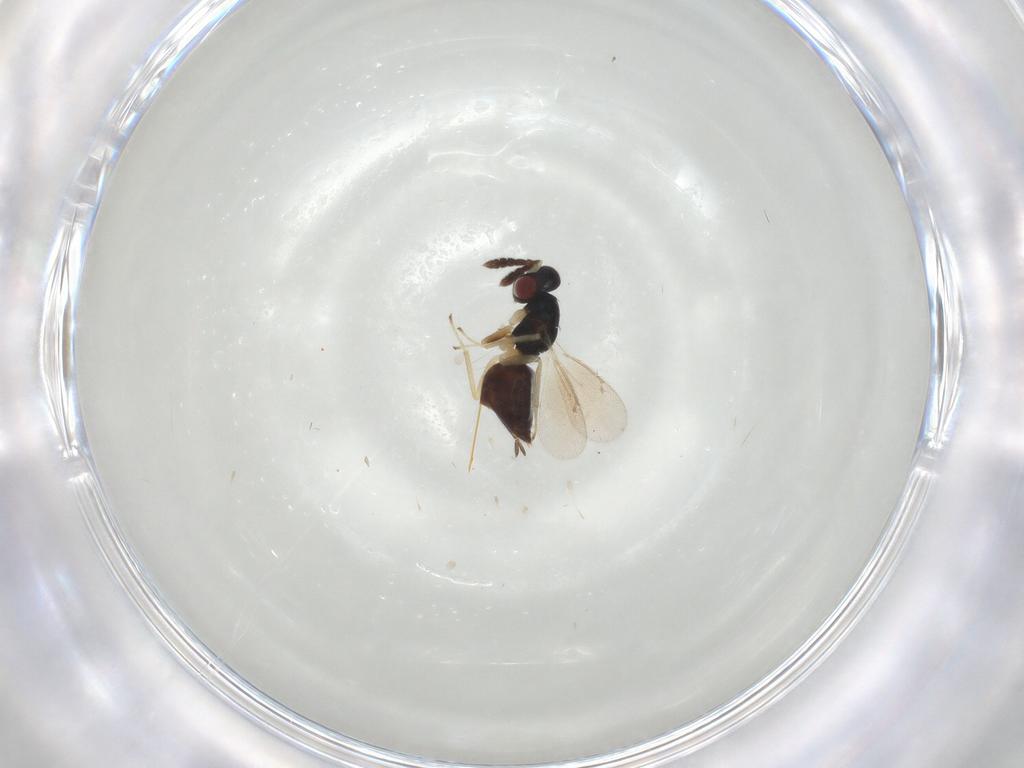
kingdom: Animalia
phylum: Arthropoda
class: Insecta
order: Hymenoptera
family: Eulophidae
